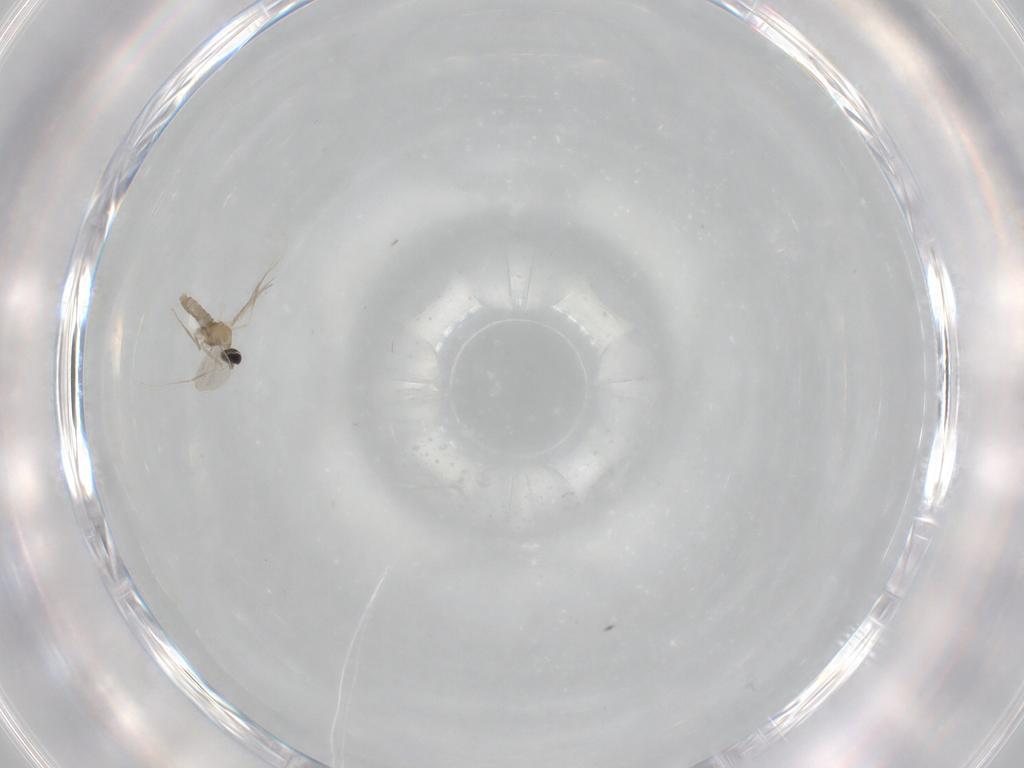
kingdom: Animalia
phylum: Arthropoda
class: Insecta
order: Diptera
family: Cecidomyiidae
